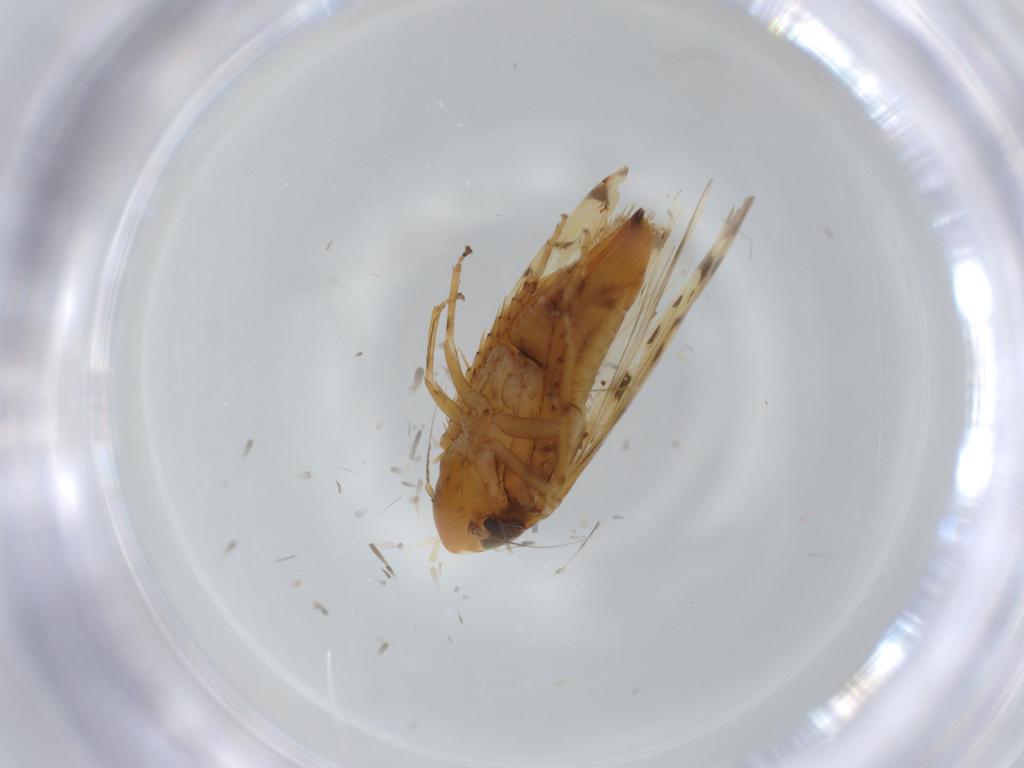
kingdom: Animalia
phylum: Arthropoda
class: Insecta
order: Hemiptera
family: Cicadellidae
